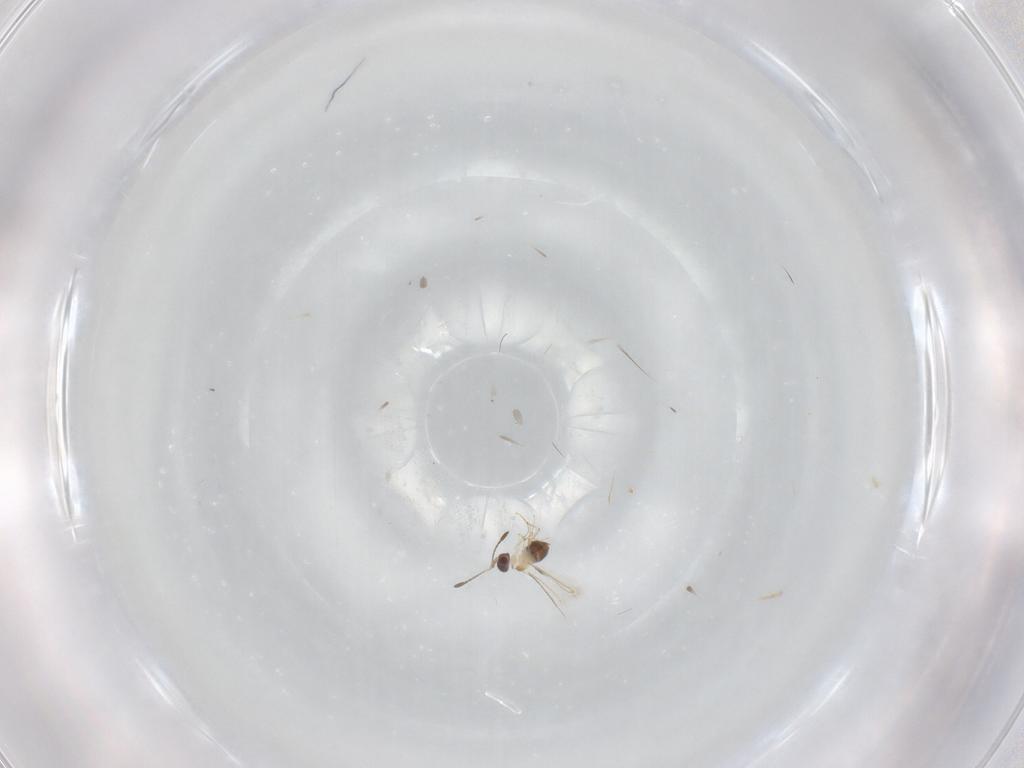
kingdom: Animalia
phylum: Arthropoda
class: Insecta
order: Hymenoptera
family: Mymaridae
